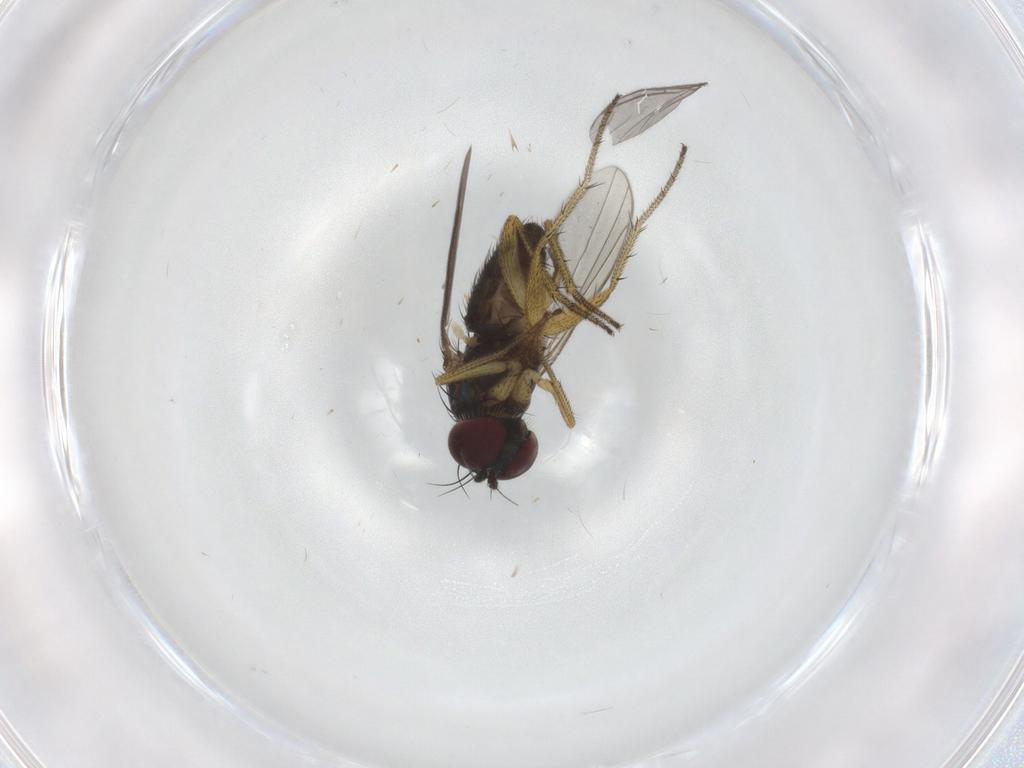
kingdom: Animalia
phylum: Arthropoda
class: Insecta
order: Diptera
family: Dolichopodidae
